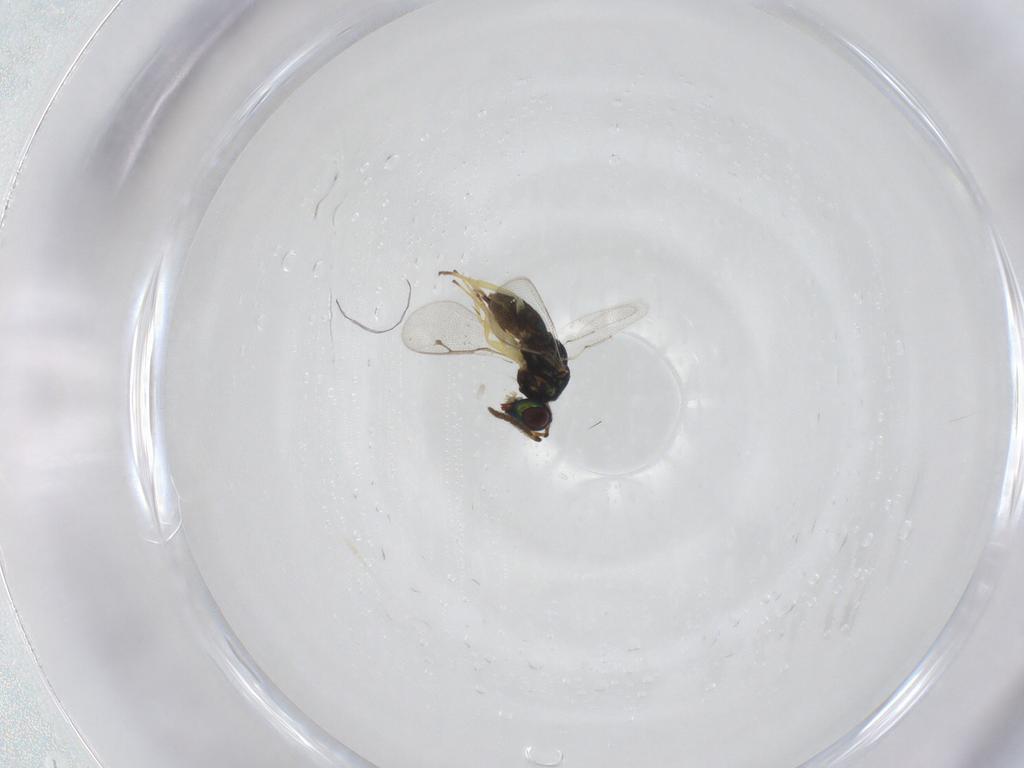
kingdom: Animalia
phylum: Arthropoda
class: Insecta
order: Hymenoptera
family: Pteromalidae
